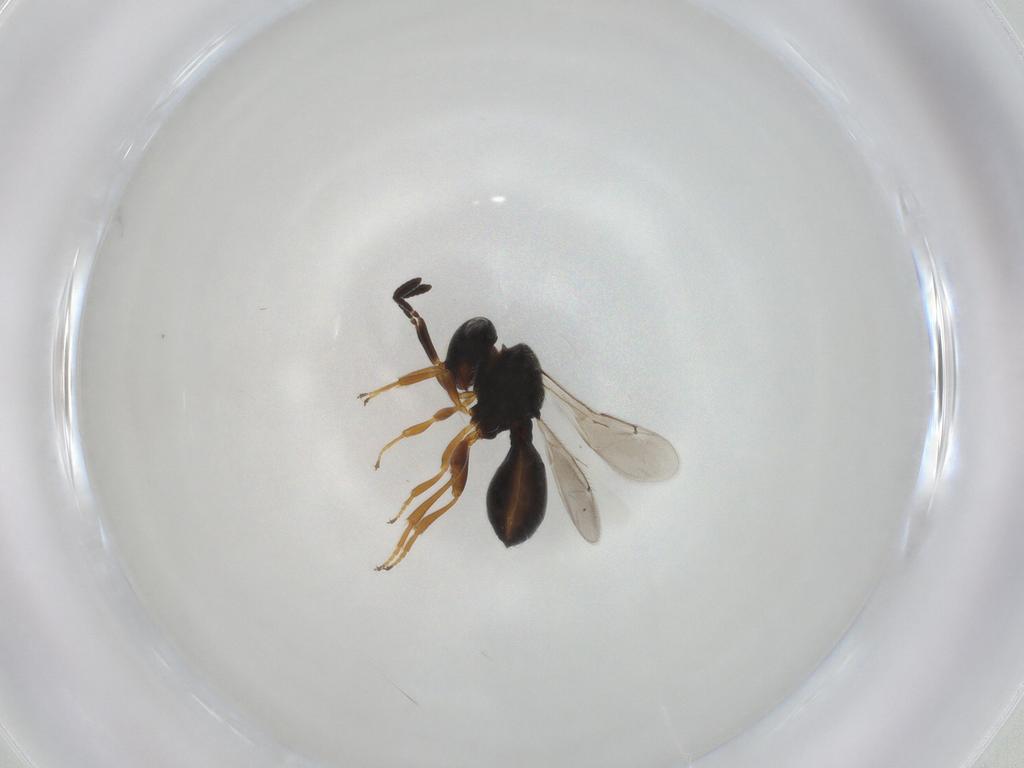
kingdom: Animalia
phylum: Arthropoda
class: Insecta
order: Hymenoptera
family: Scelionidae
